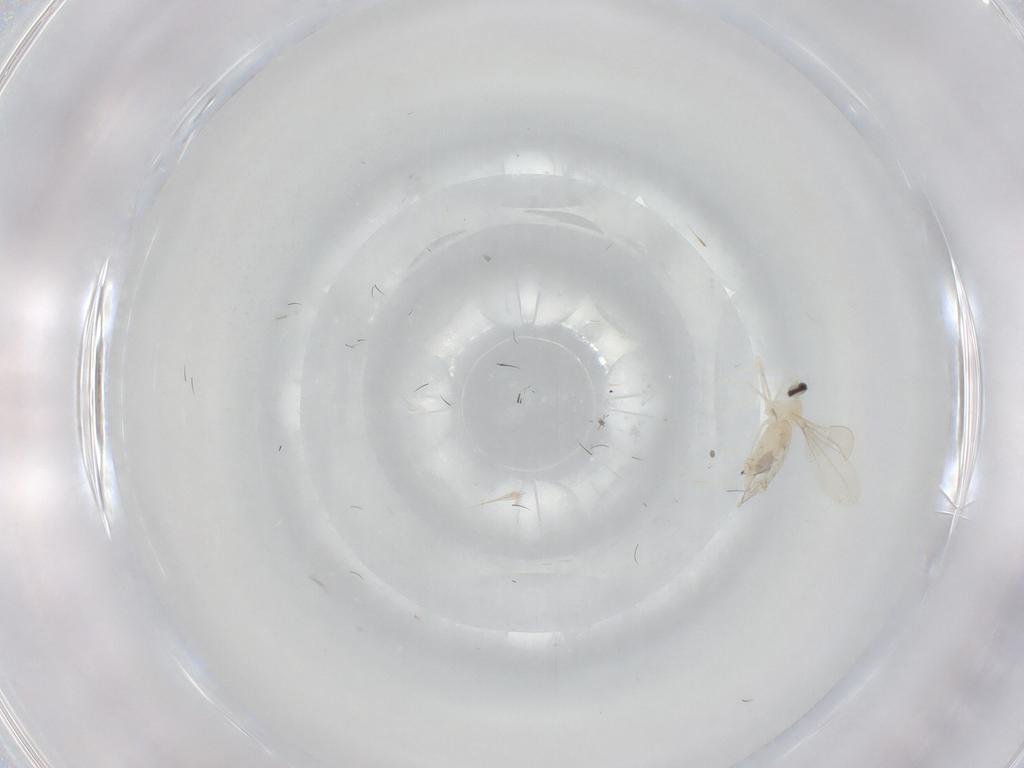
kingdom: Animalia
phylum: Arthropoda
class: Insecta
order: Diptera
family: Cecidomyiidae
